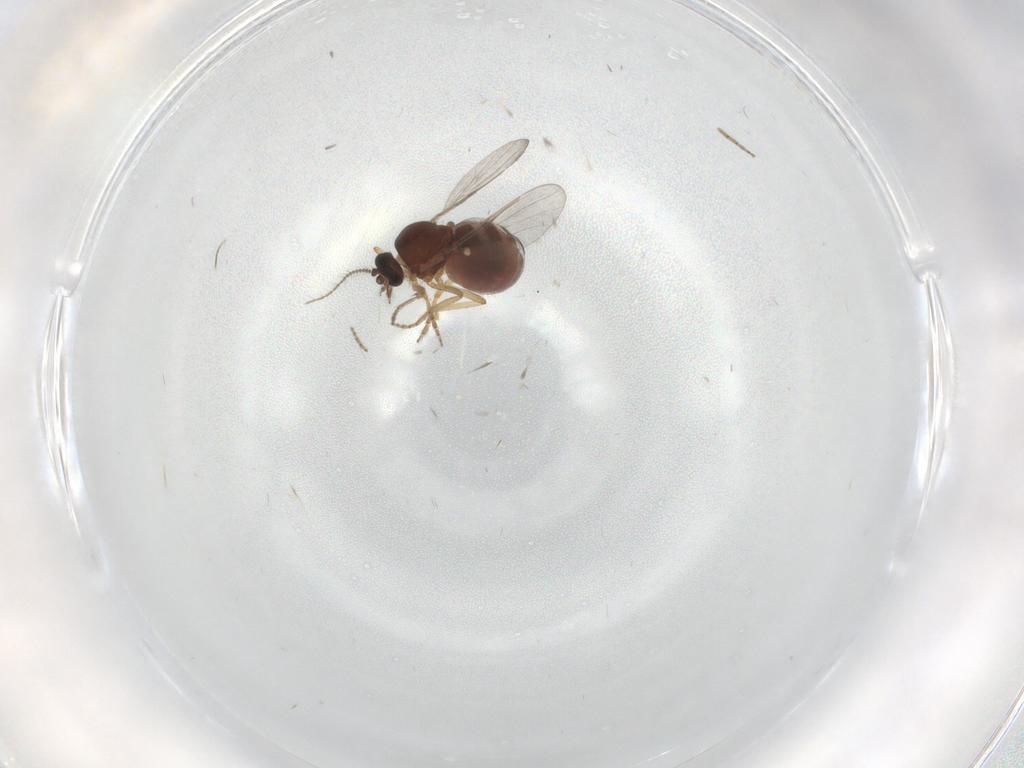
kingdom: Animalia
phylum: Arthropoda
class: Insecta
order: Diptera
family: Ceratopogonidae
